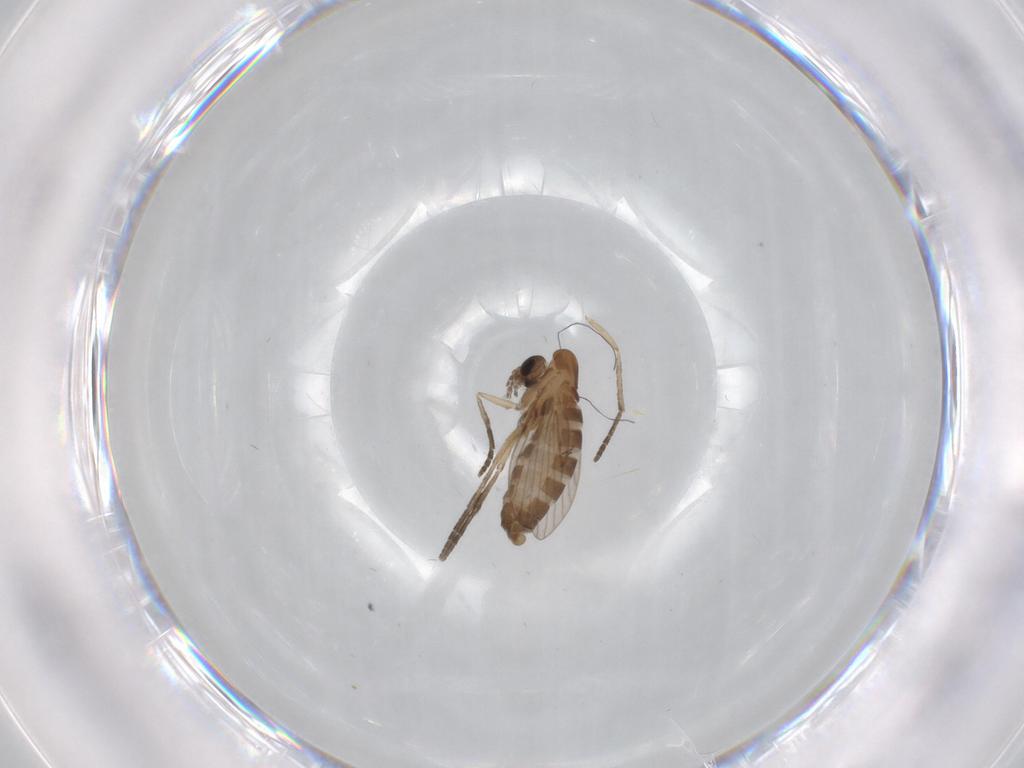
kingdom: Animalia
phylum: Arthropoda
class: Insecta
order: Diptera
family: Chironomidae
